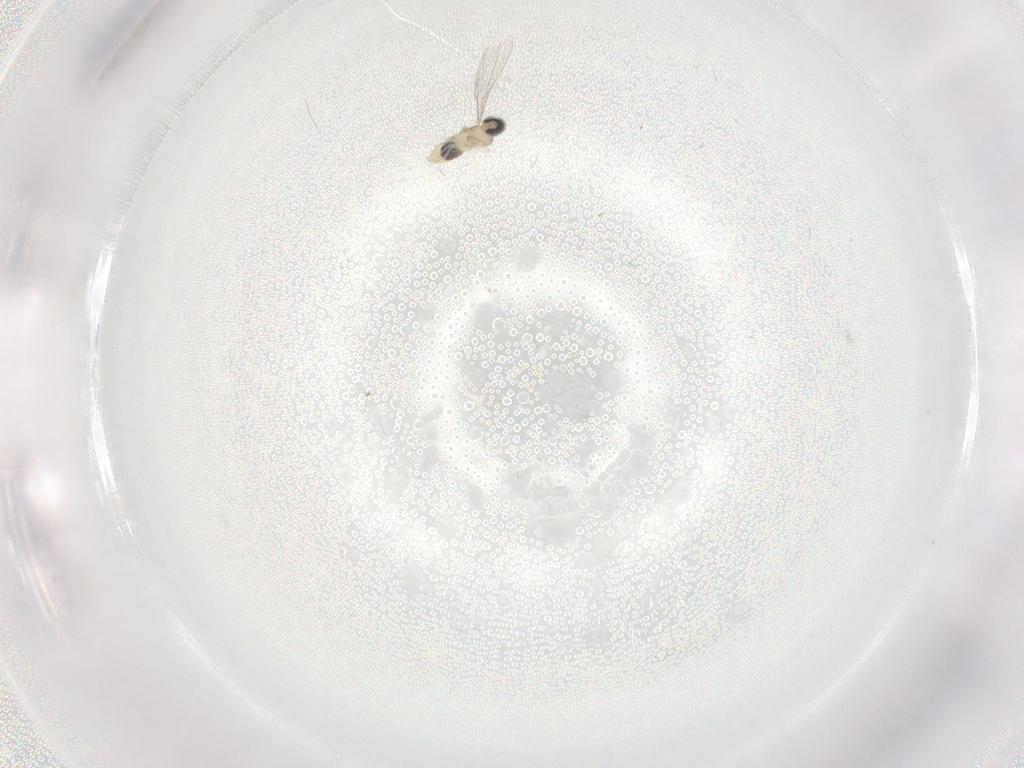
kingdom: Animalia
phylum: Arthropoda
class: Insecta
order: Diptera
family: Cecidomyiidae
